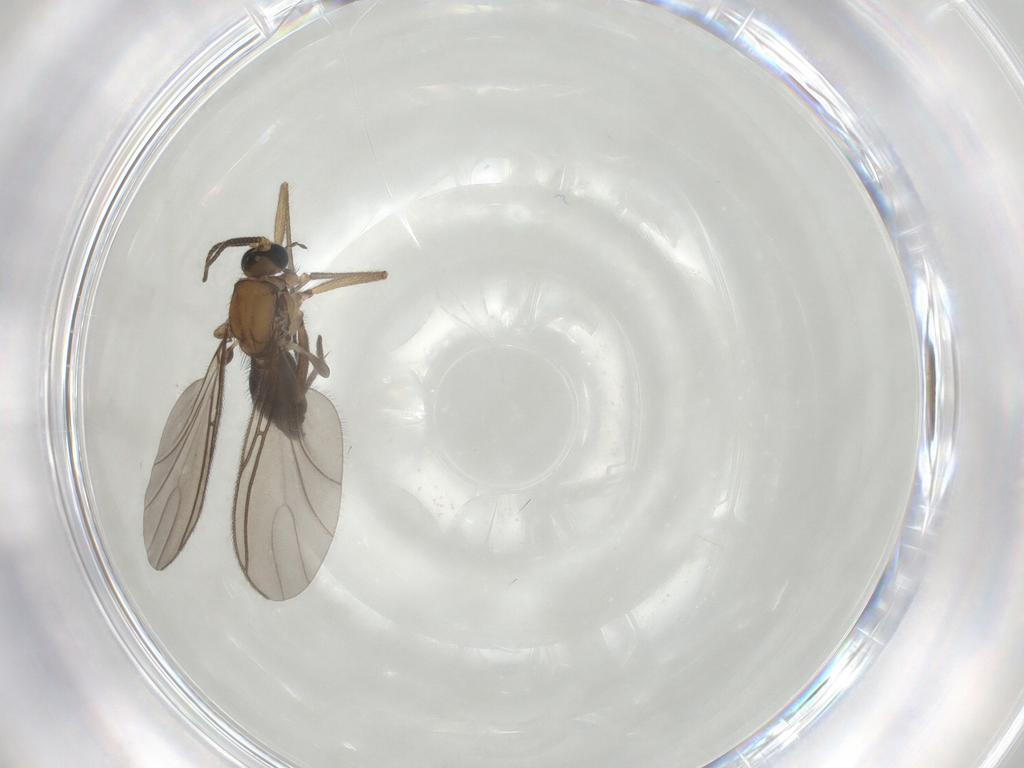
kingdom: Animalia
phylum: Arthropoda
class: Insecta
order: Diptera
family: Sciaridae
